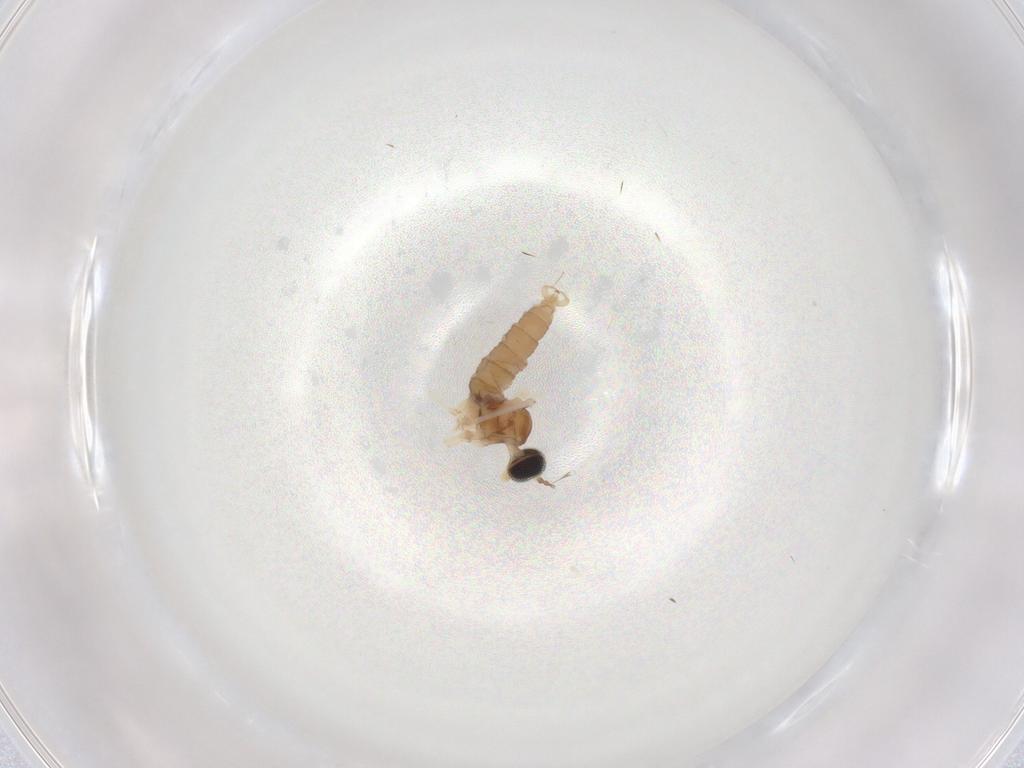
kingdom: Animalia
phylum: Arthropoda
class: Insecta
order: Diptera
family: Cecidomyiidae
